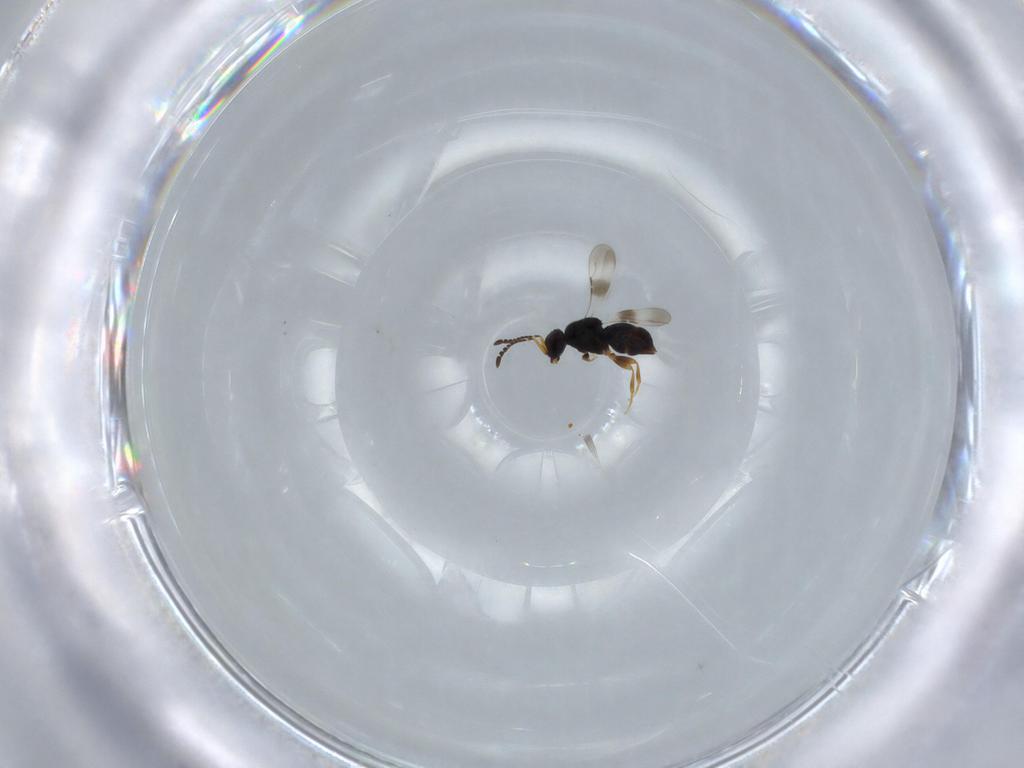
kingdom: Animalia
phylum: Arthropoda
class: Insecta
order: Hymenoptera
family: Ceraphronidae
